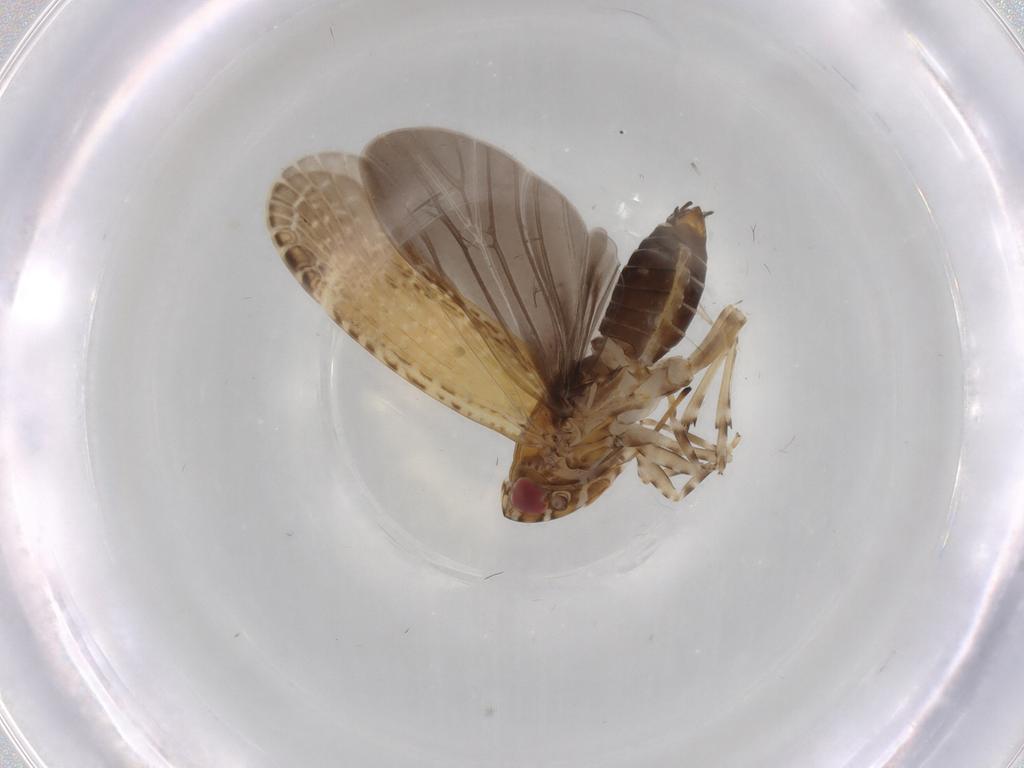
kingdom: Animalia
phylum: Arthropoda
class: Insecta
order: Hemiptera
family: Cicadellidae
